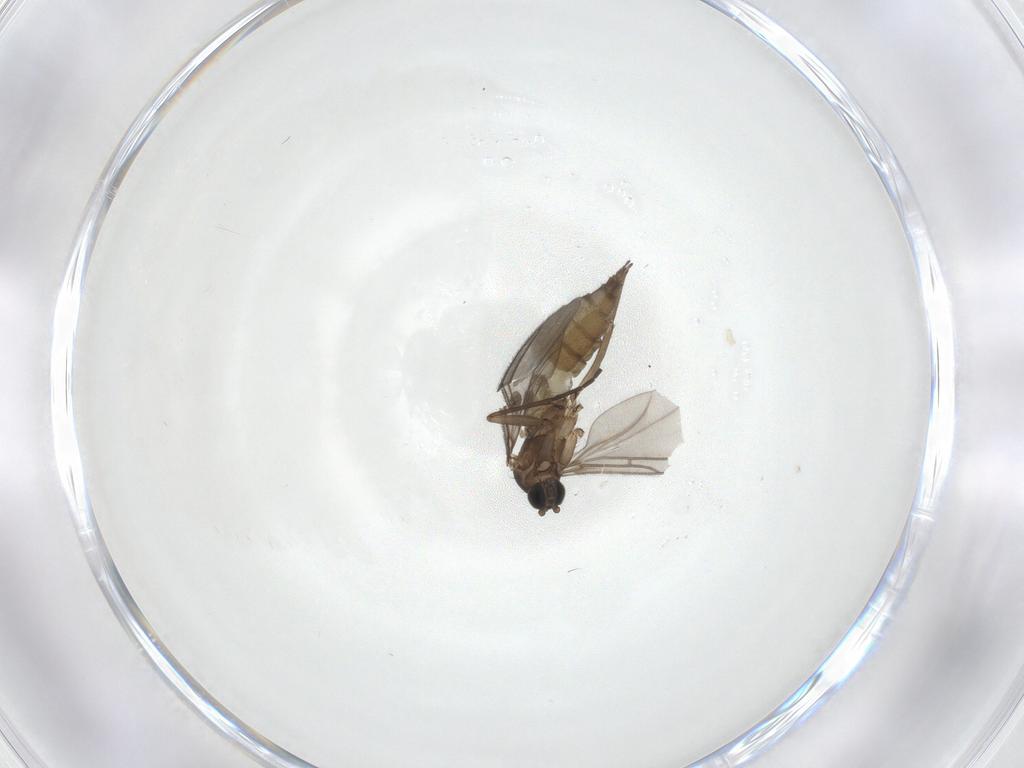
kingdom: Animalia
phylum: Arthropoda
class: Insecta
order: Diptera
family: Sciaridae
